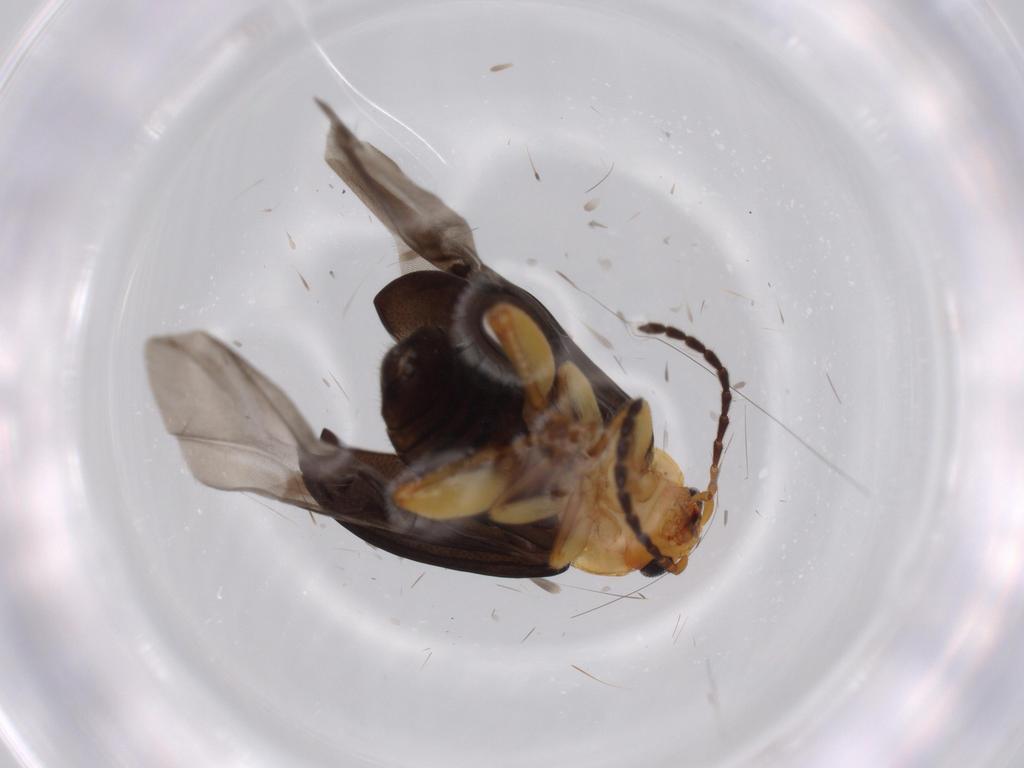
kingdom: Animalia
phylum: Arthropoda
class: Insecta
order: Coleoptera
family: Chrysomelidae
